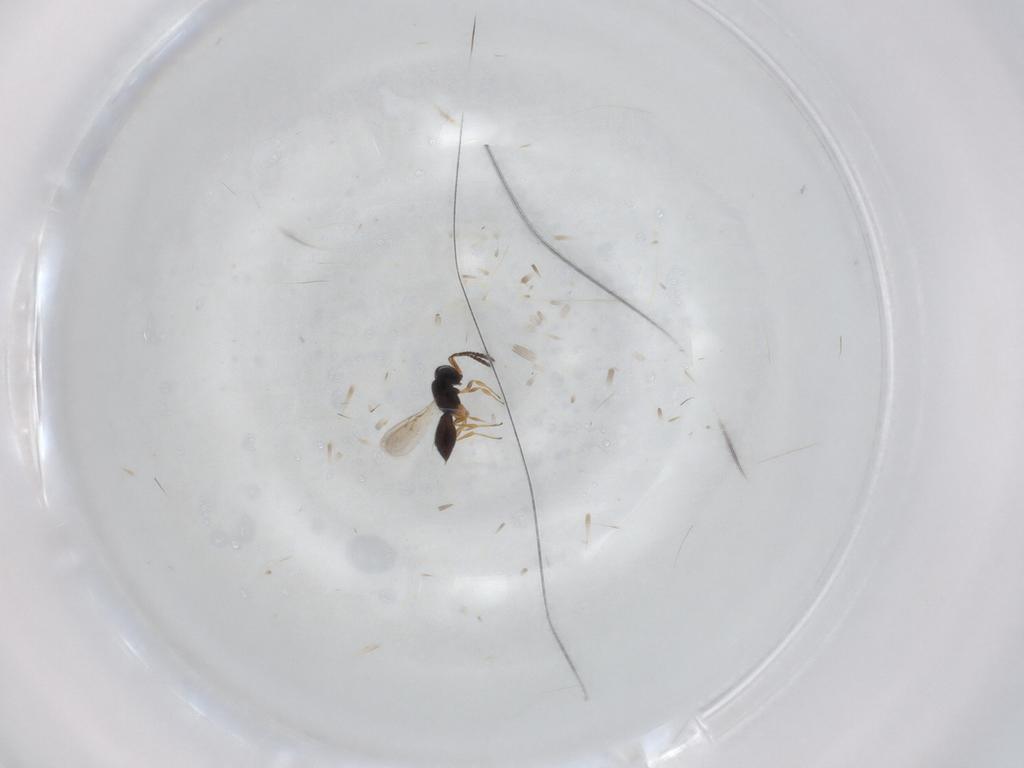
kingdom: Animalia
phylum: Arthropoda
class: Insecta
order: Hymenoptera
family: Scelionidae
